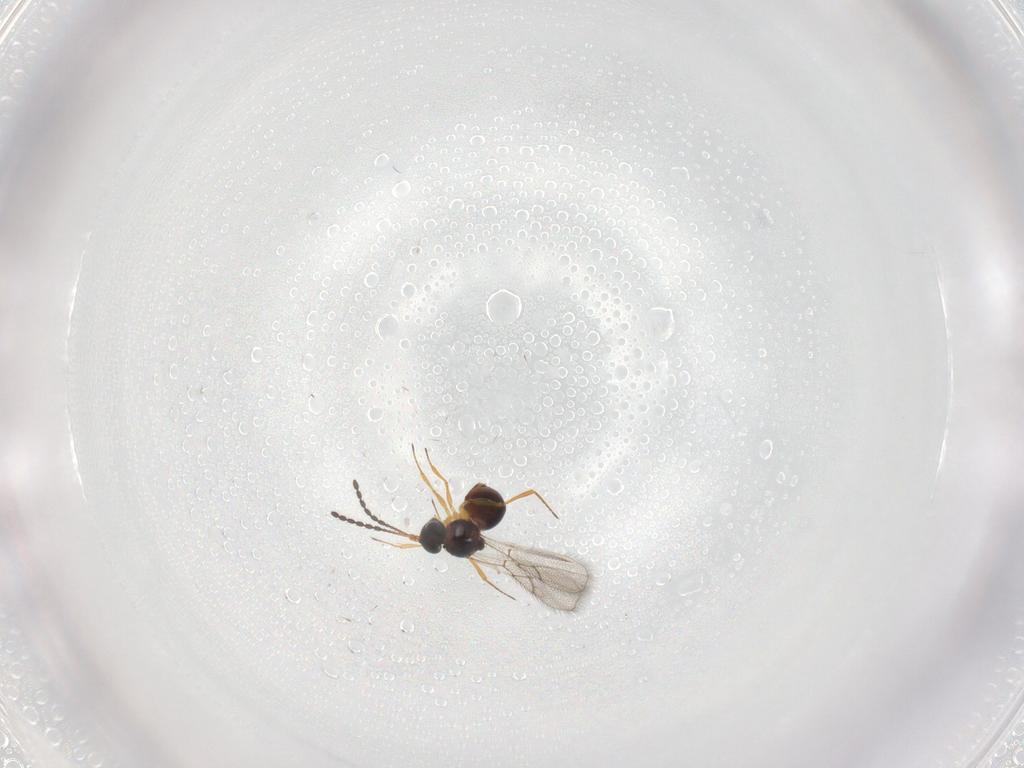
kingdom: Animalia
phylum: Arthropoda
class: Insecta
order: Hymenoptera
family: Figitidae
